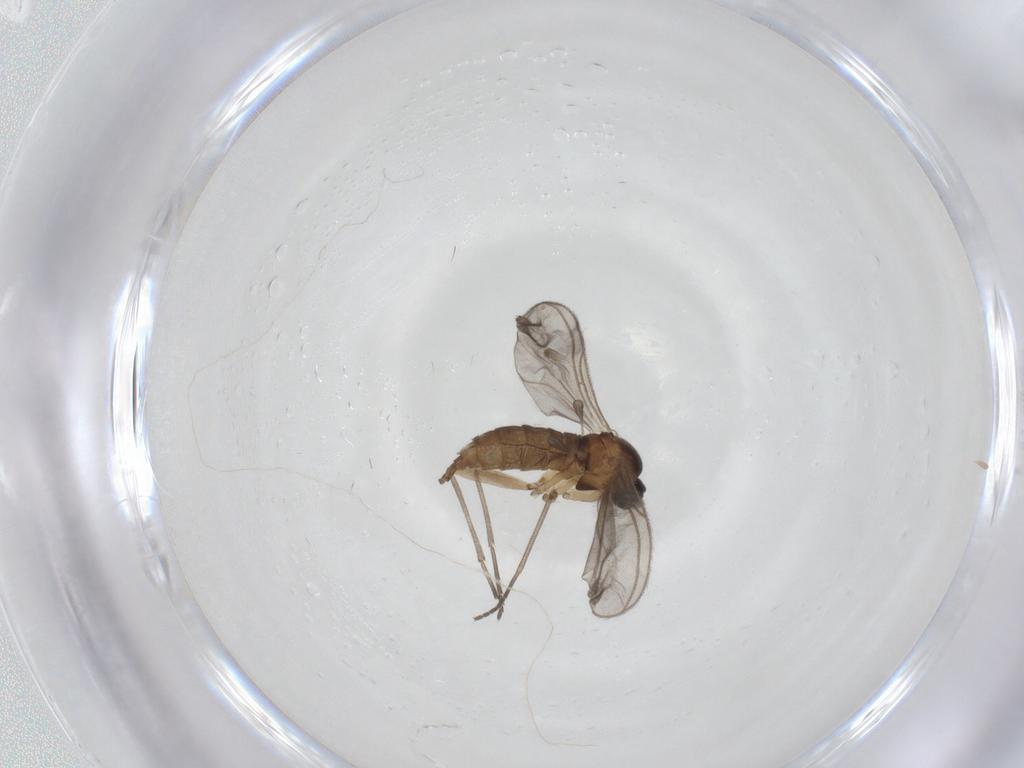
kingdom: Animalia
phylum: Arthropoda
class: Insecta
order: Diptera
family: Sciaridae
